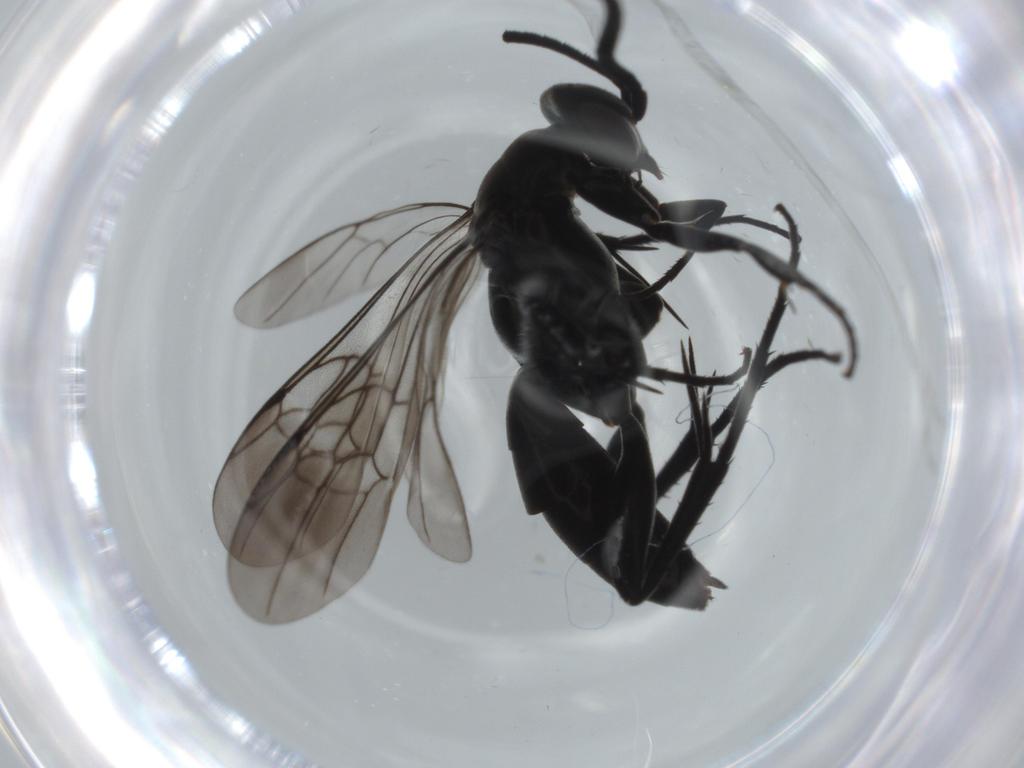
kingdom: Animalia
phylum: Arthropoda
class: Insecta
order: Hymenoptera
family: Pompilidae
